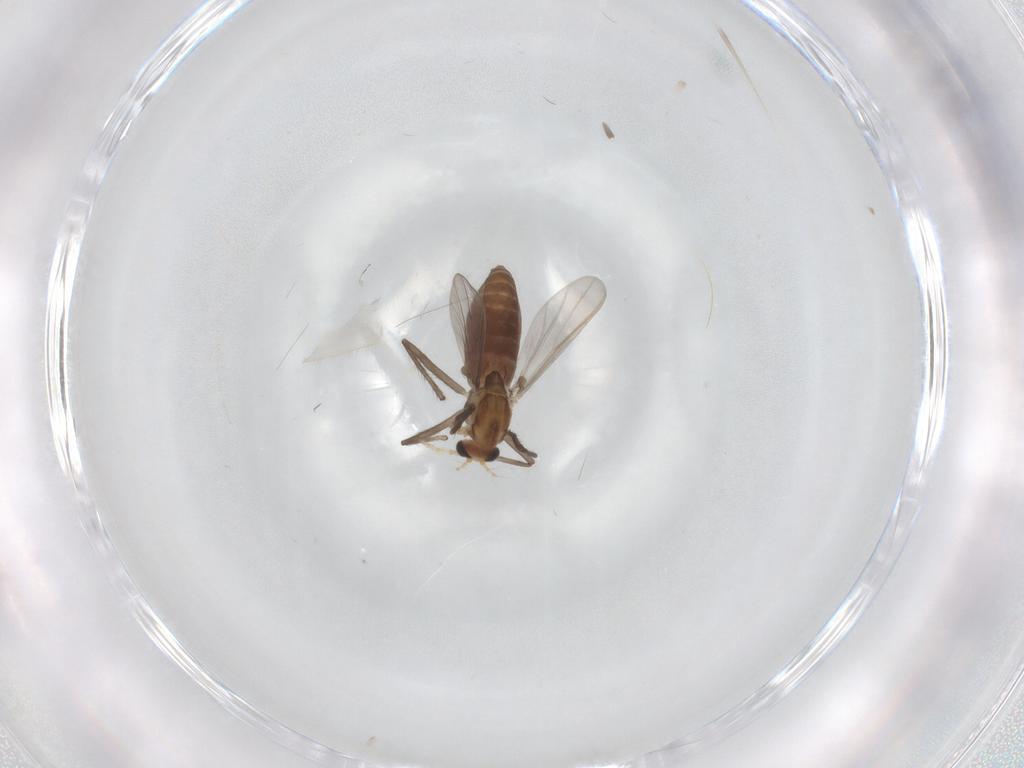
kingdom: Animalia
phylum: Arthropoda
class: Insecta
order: Diptera
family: Chironomidae
